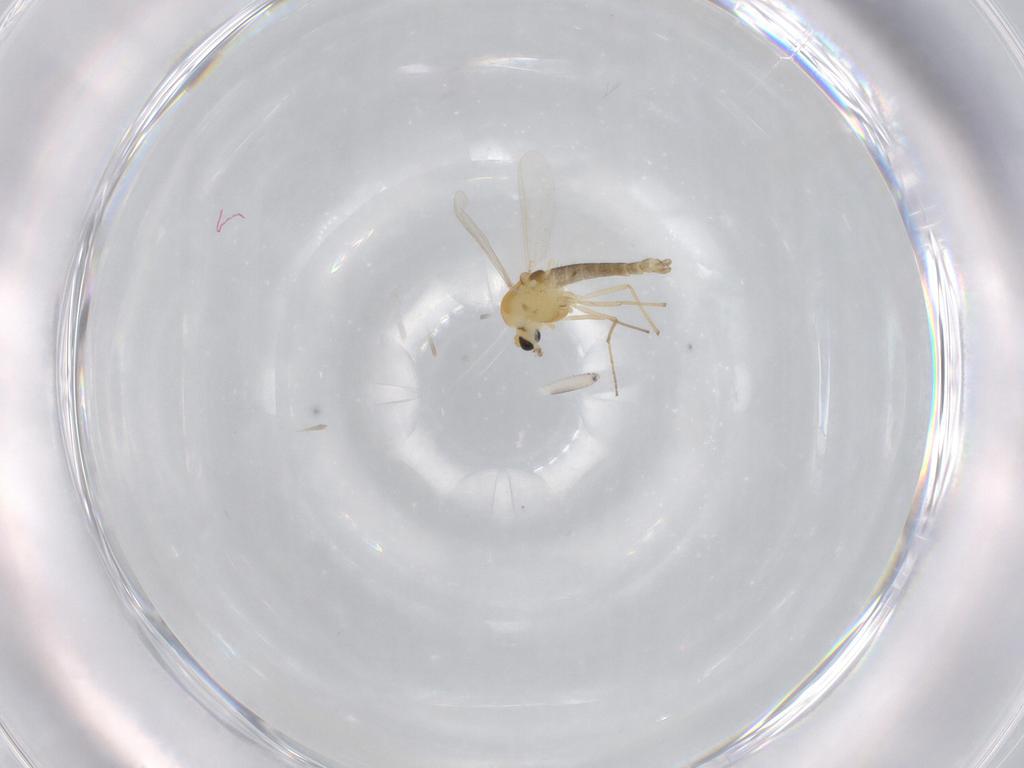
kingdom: Animalia
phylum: Arthropoda
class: Insecta
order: Diptera
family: Chironomidae
